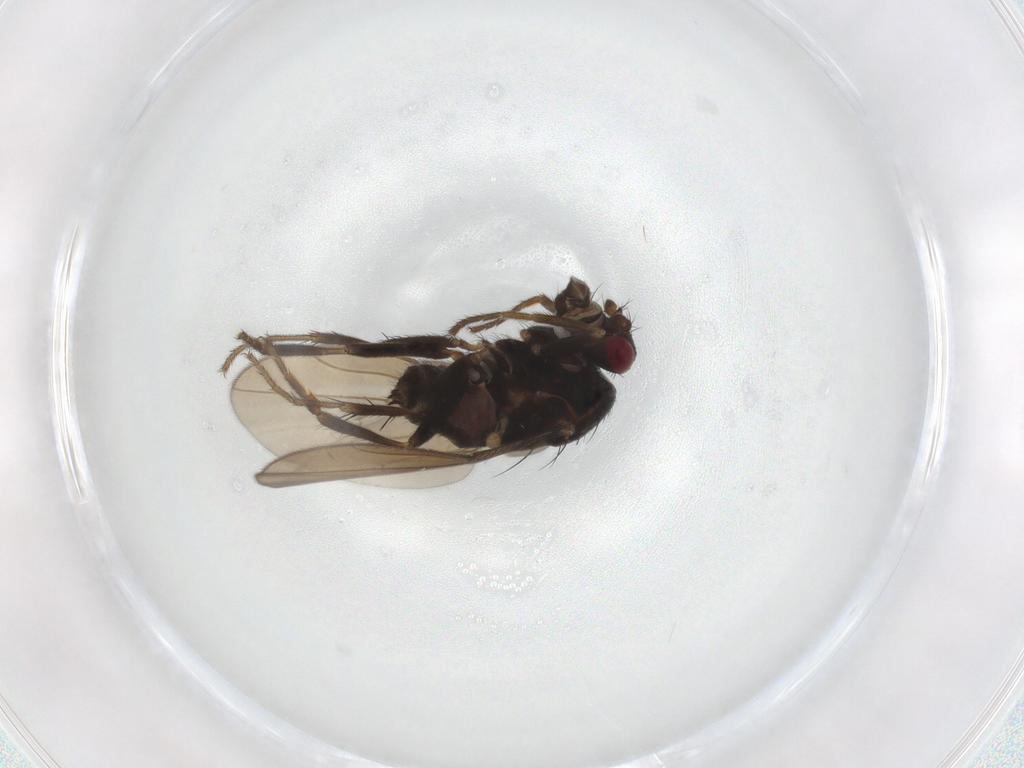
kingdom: Animalia
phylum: Arthropoda
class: Insecta
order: Diptera
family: Sphaeroceridae
